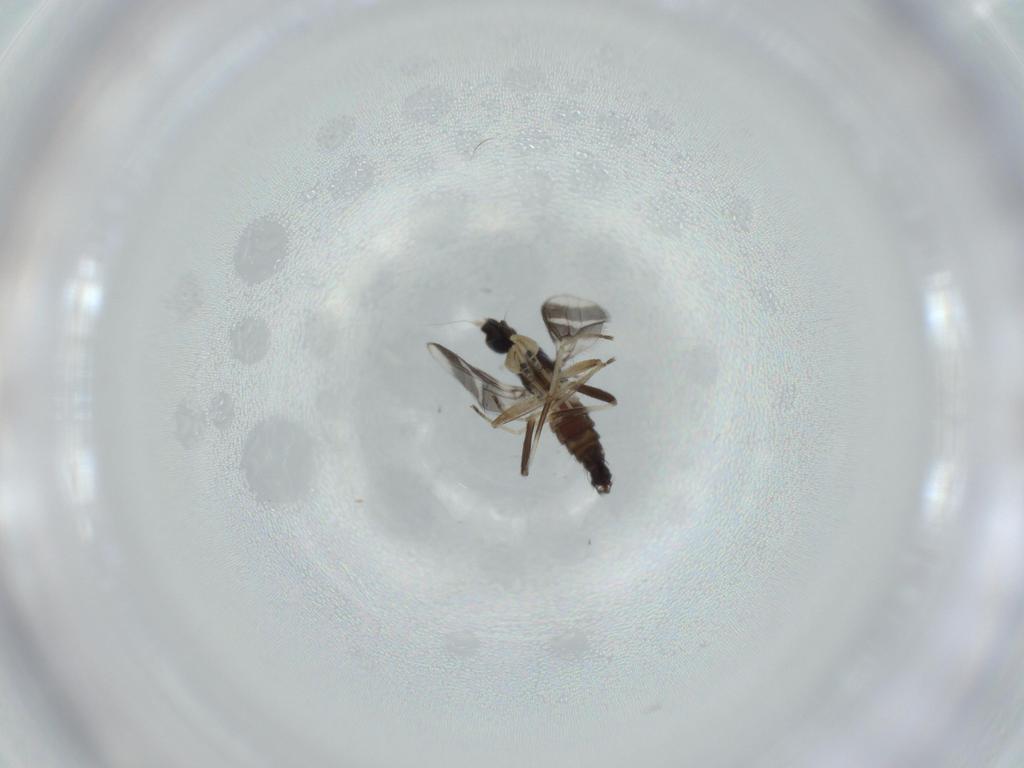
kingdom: Animalia
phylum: Arthropoda
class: Insecta
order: Diptera
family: Hybotidae
